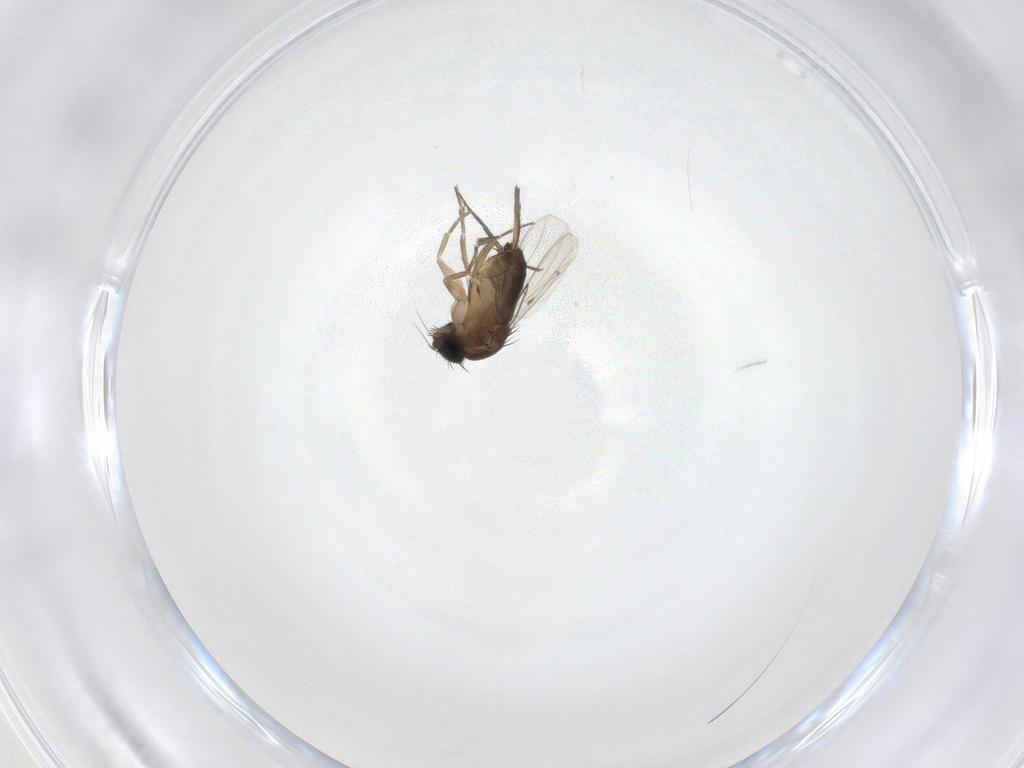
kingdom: Animalia
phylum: Arthropoda
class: Insecta
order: Diptera
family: Phoridae
